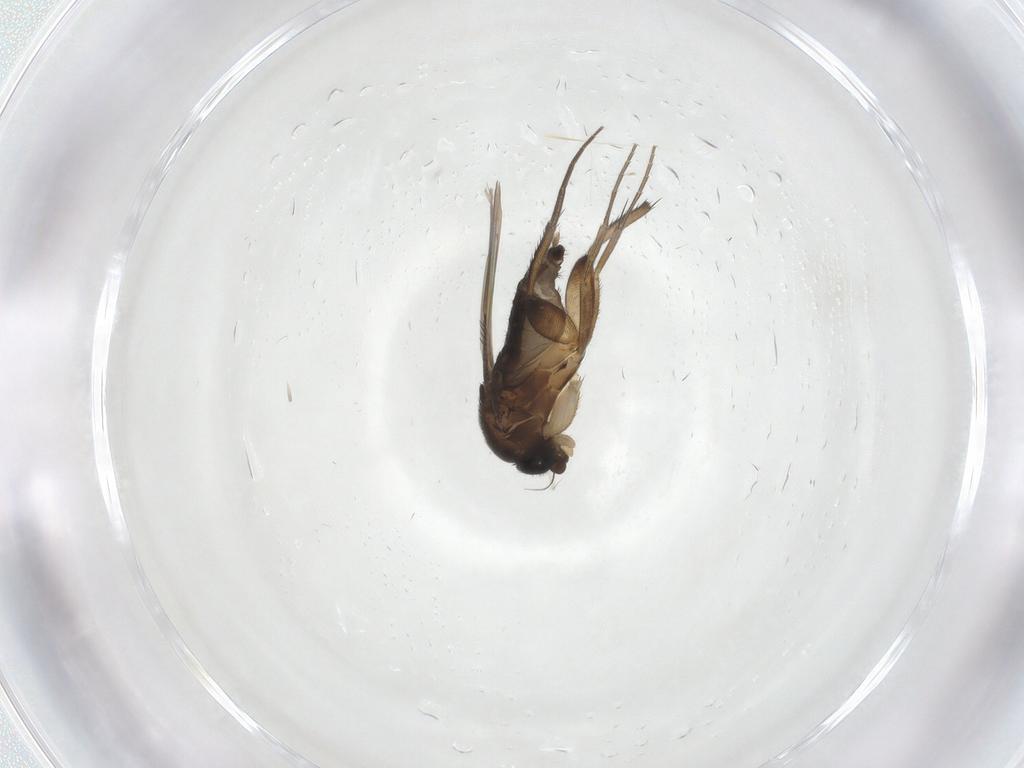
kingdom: Animalia
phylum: Arthropoda
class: Insecta
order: Diptera
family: Phoridae
